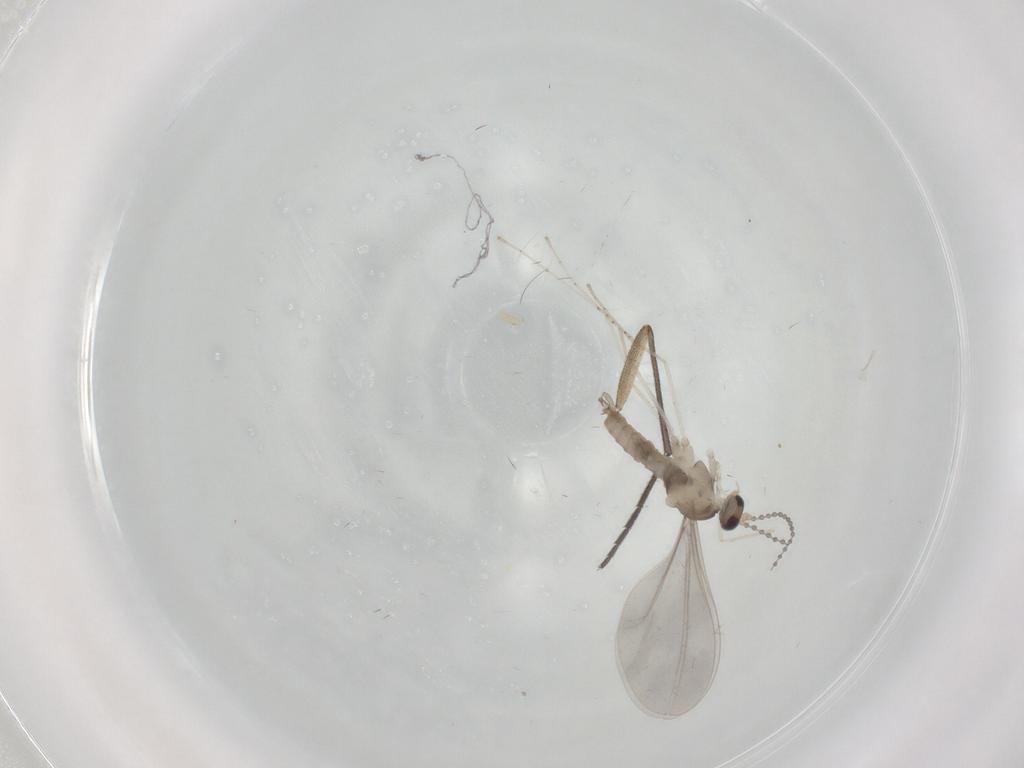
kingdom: Animalia
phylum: Arthropoda
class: Insecta
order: Diptera
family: Cecidomyiidae
